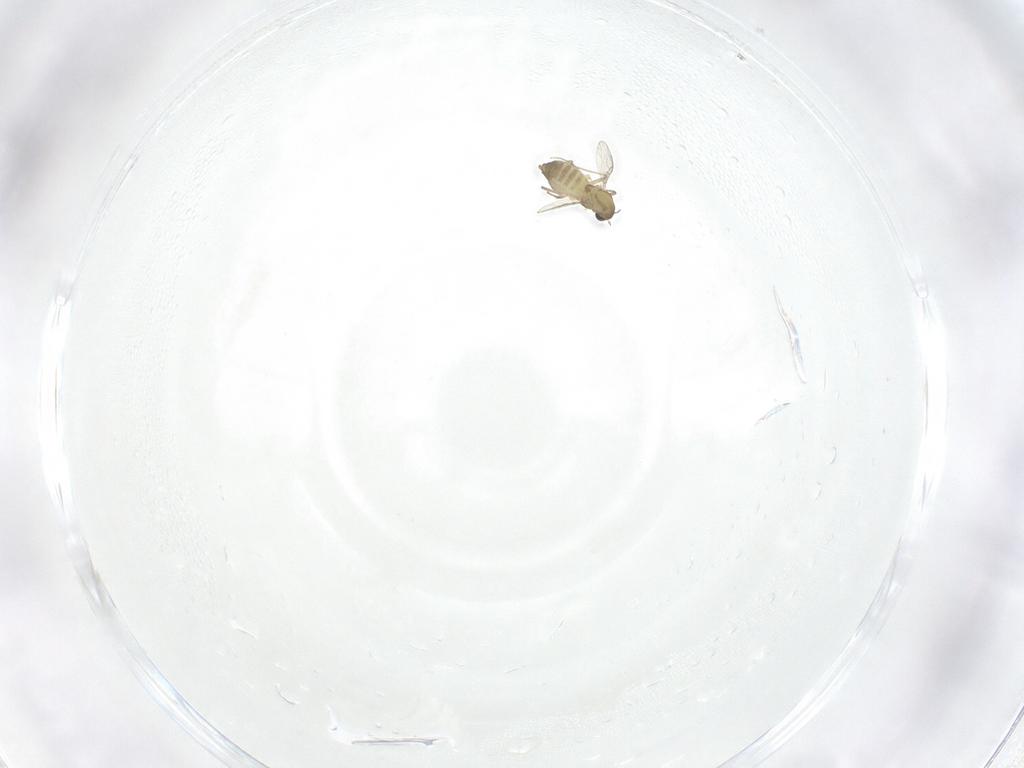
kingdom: Animalia
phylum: Arthropoda
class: Insecta
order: Diptera
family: Chironomidae
